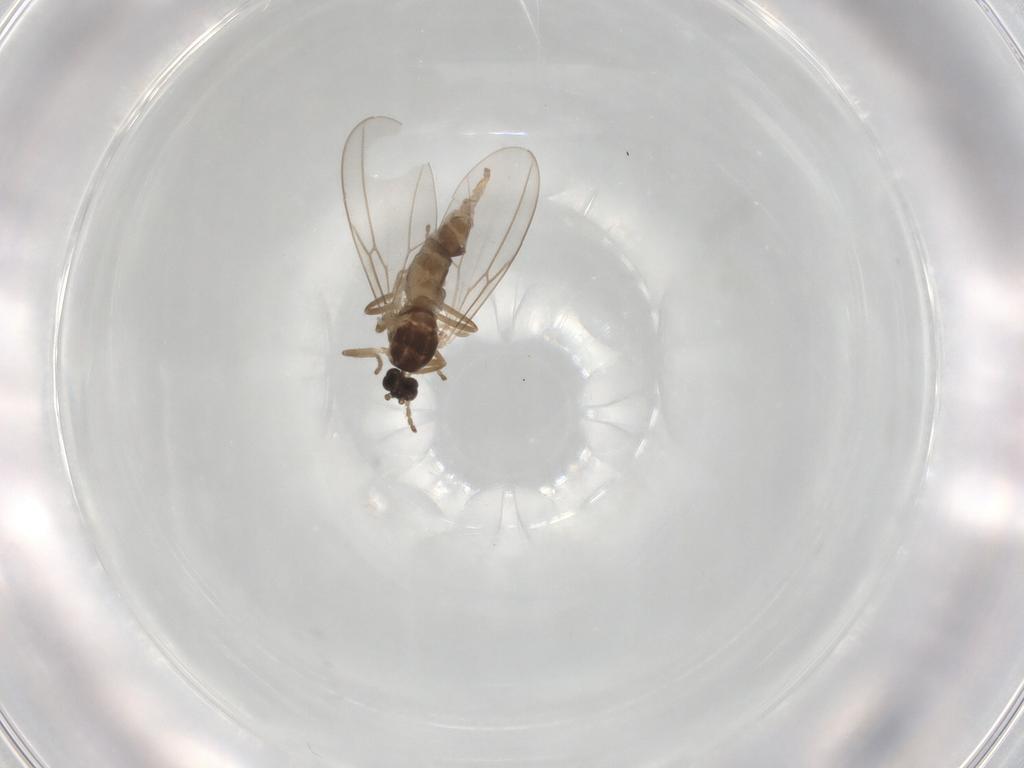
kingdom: Animalia
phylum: Arthropoda
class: Insecta
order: Diptera
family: Cecidomyiidae
